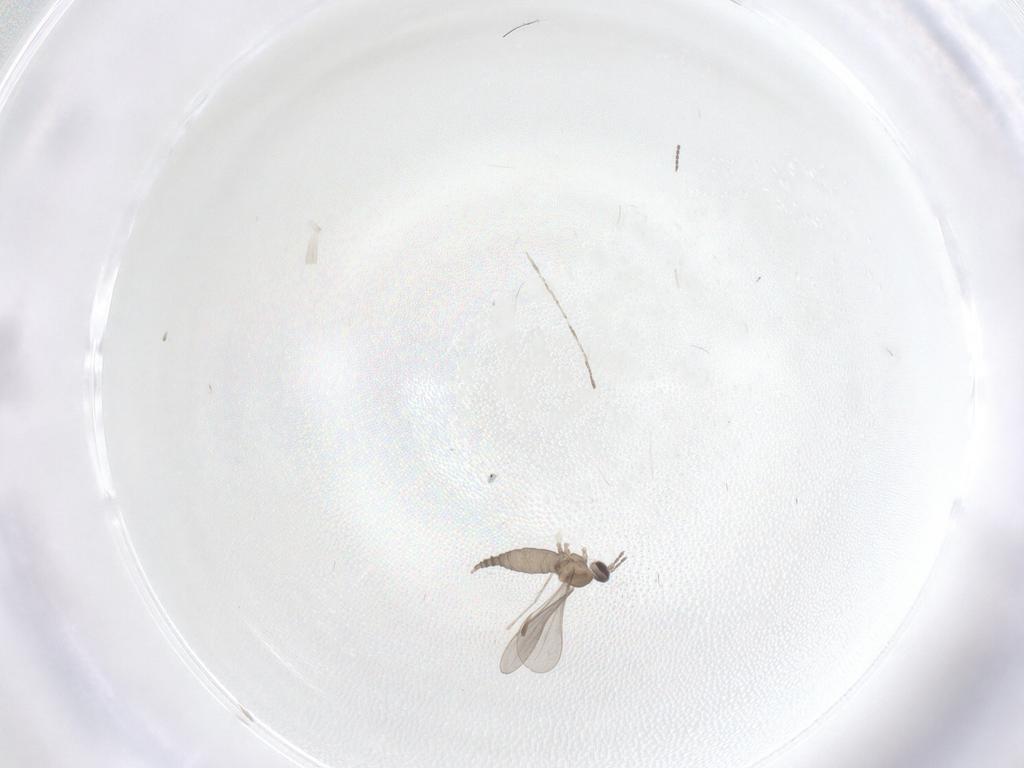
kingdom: Animalia
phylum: Arthropoda
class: Insecta
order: Diptera
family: Cecidomyiidae
